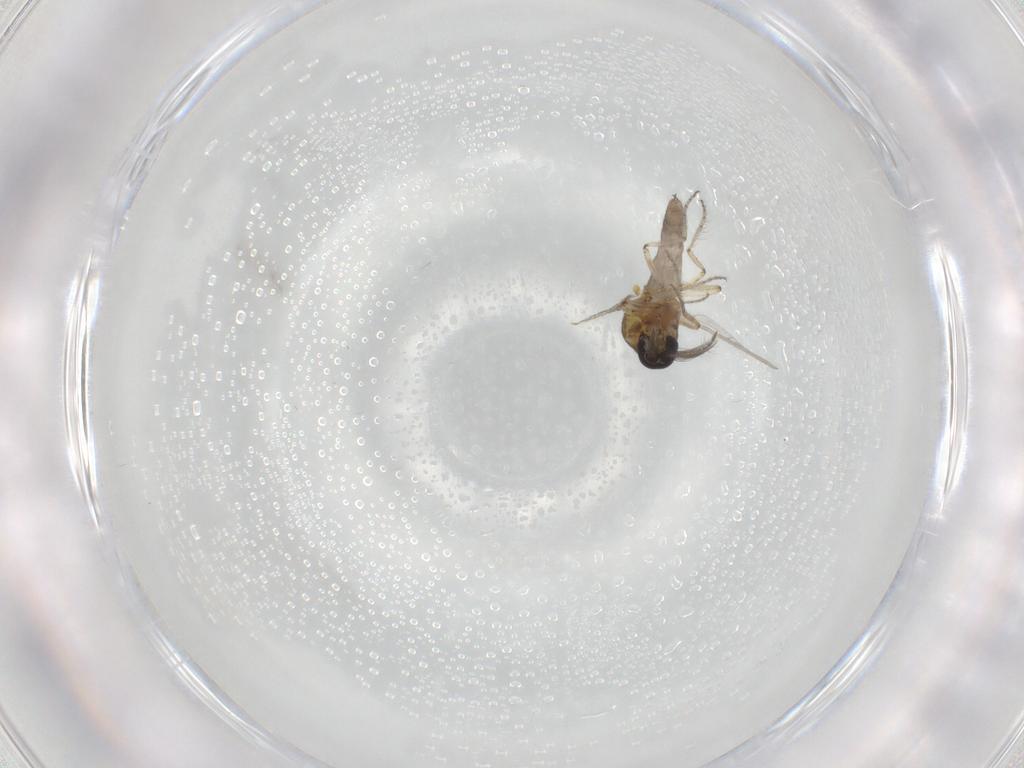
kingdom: Animalia
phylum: Arthropoda
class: Insecta
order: Diptera
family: Ceratopogonidae
